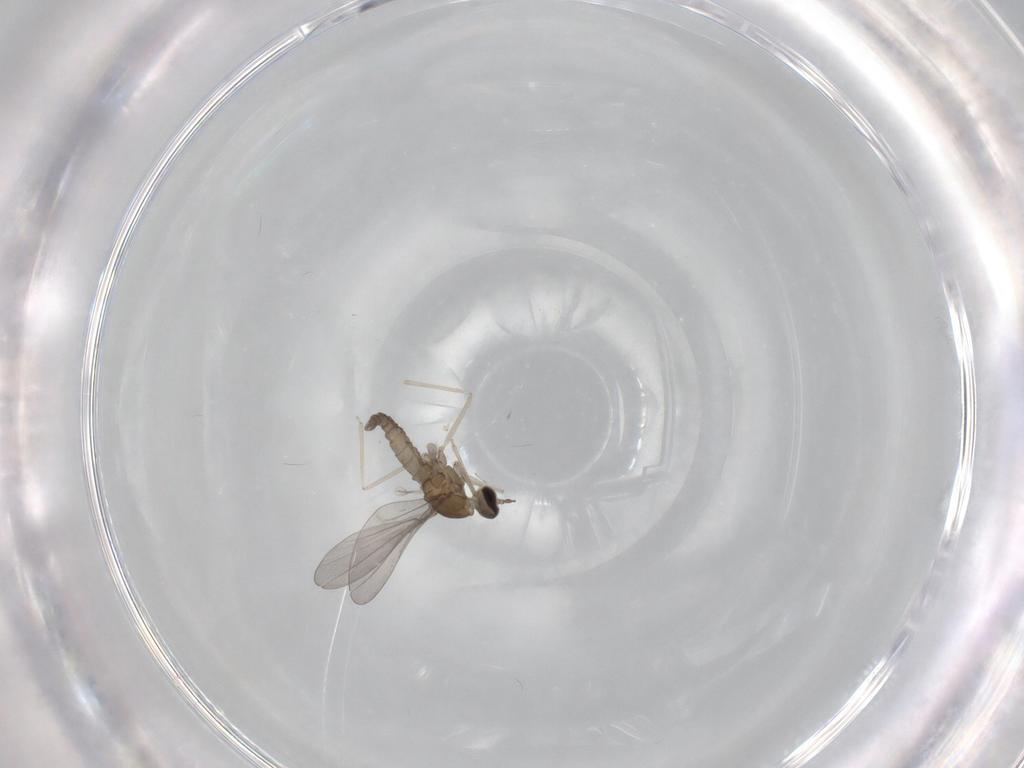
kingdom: Animalia
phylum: Arthropoda
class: Insecta
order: Diptera
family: Cecidomyiidae
